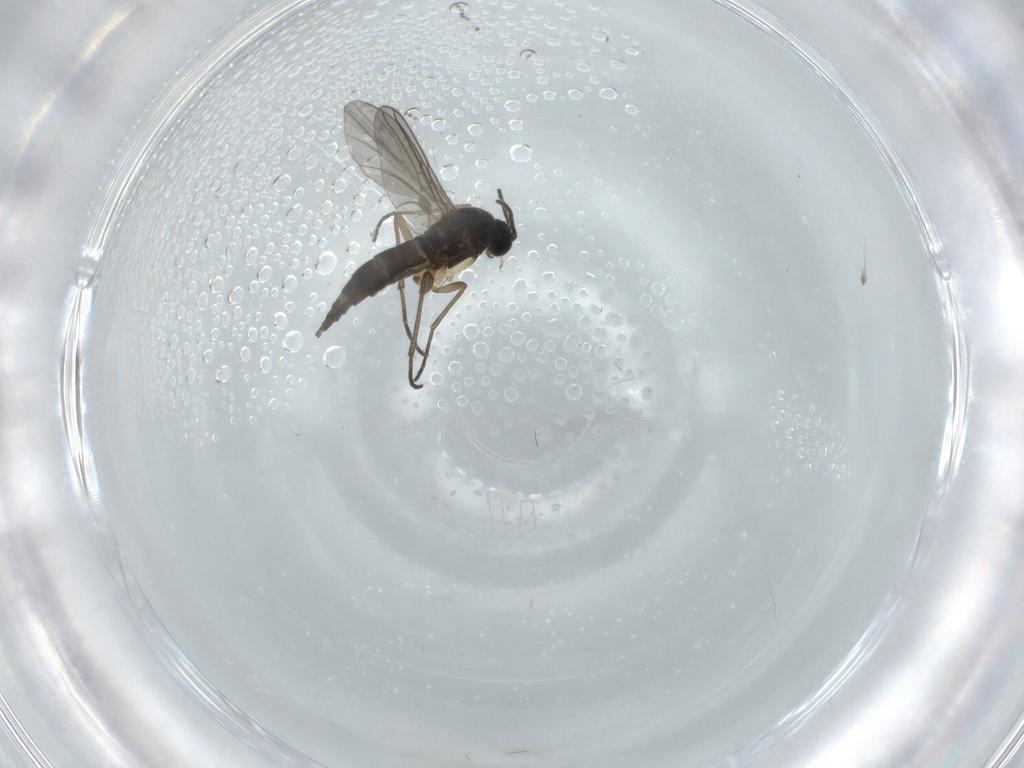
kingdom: Animalia
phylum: Arthropoda
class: Insecta
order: Diptera
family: Sciaridae
